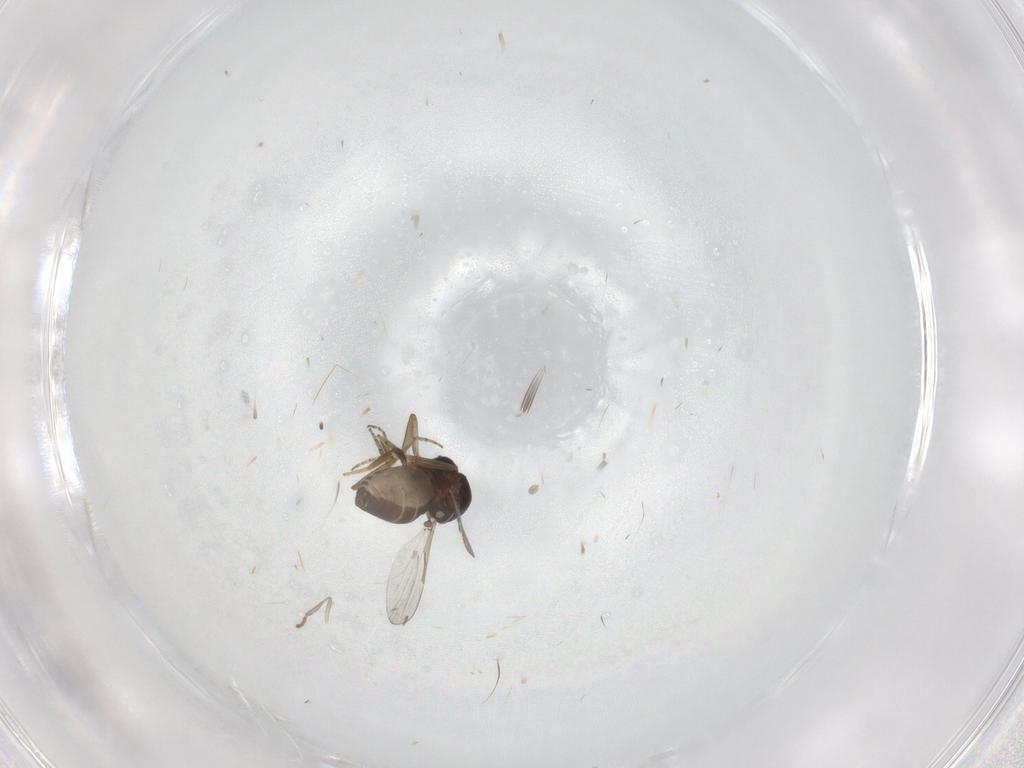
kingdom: Animalia
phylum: Arthropoda
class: Insecta
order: Diptera
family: Ceratopogonidae
